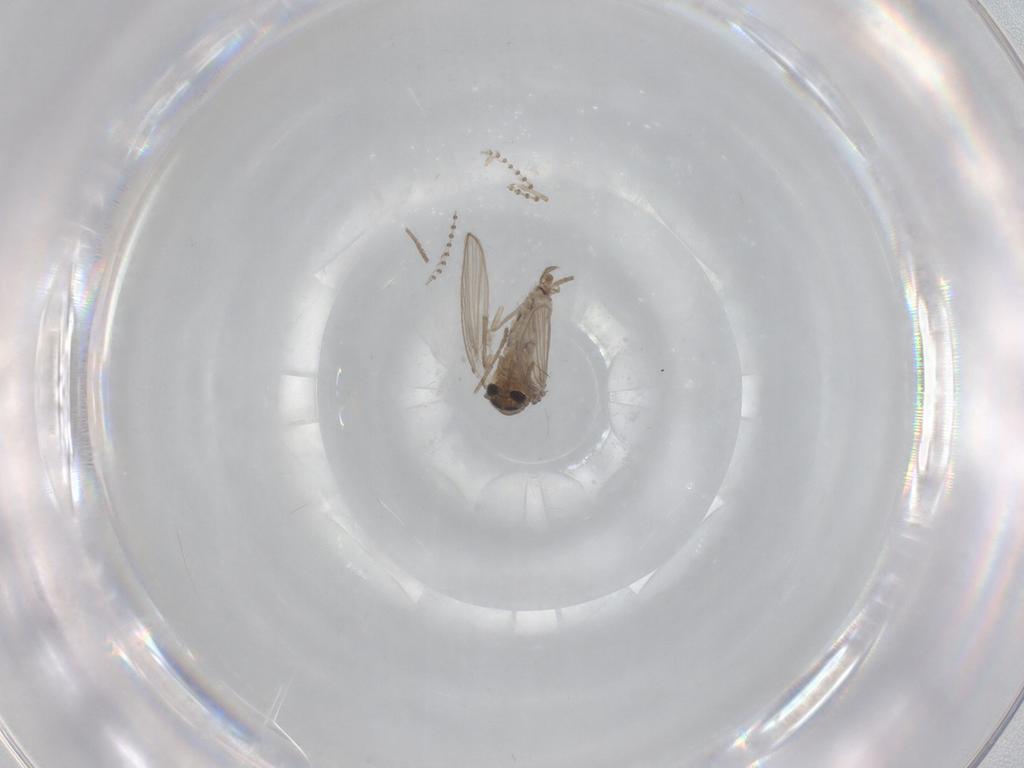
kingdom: Animalia
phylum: Arthropoda
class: Insecta
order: Diptera
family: Psychodidae
